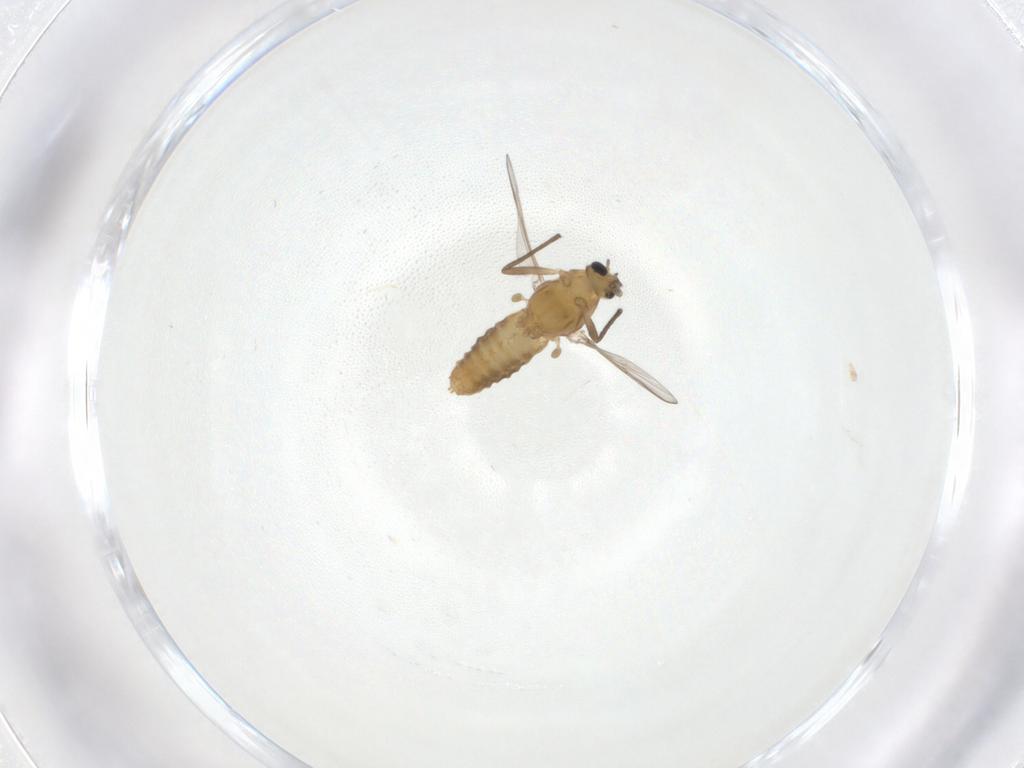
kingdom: Animalia
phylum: Arthropoda
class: Insecta
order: Diptera
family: Chironomidae
